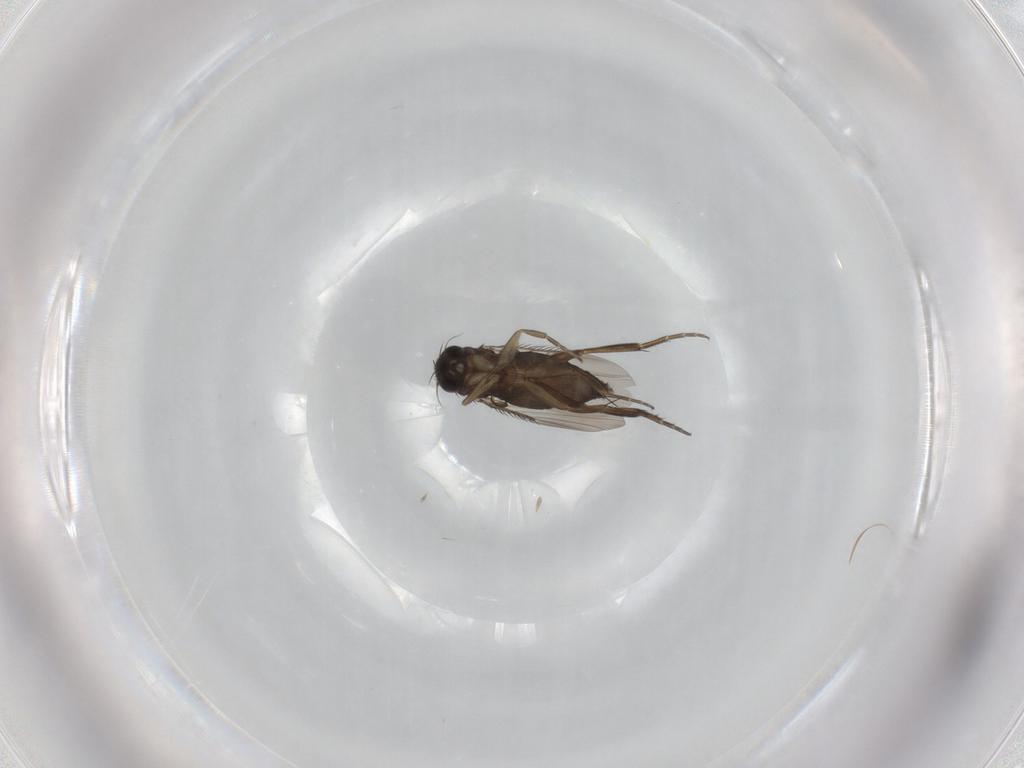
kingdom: Animalia
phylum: Arthropoda
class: Insecta
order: Diptera
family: Phoridae
